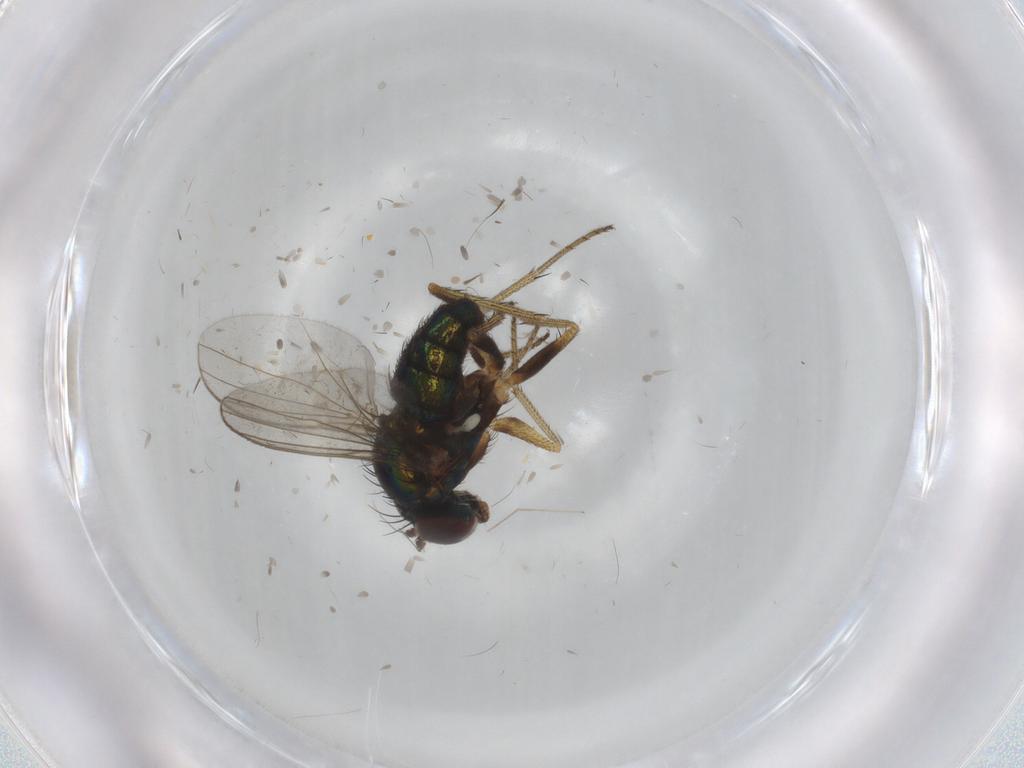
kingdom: Animalia
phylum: Arthropoda
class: Insecta
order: Diptera
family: Chironomidae
